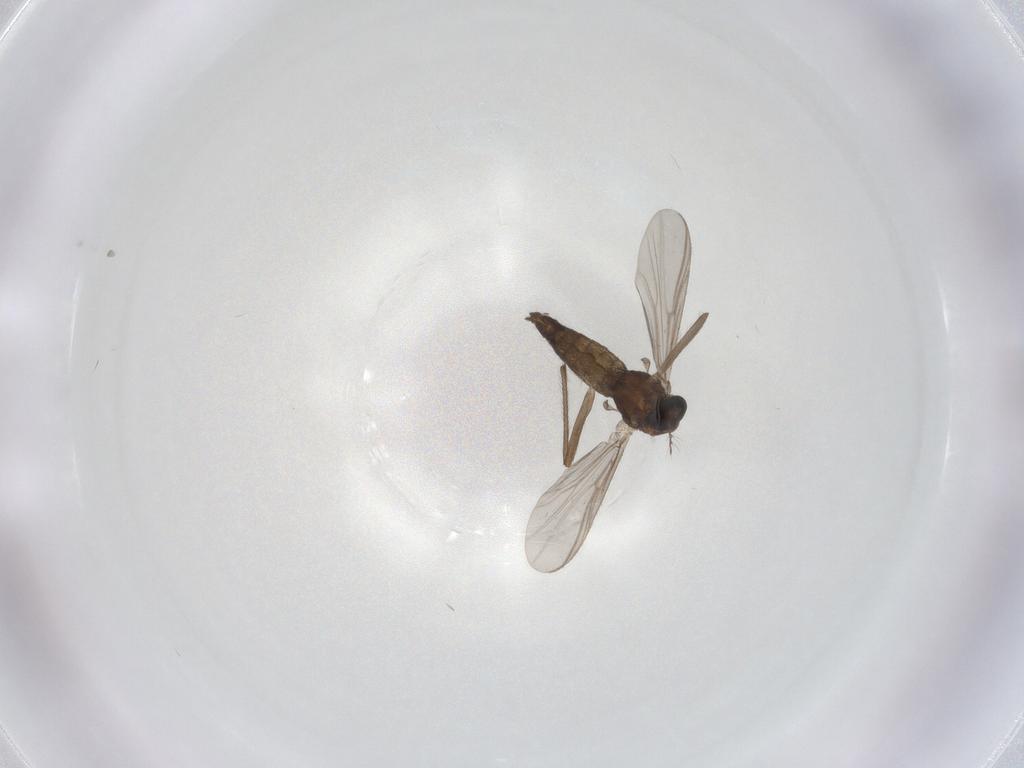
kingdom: Animalia
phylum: Arthropoda
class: Insecta
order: Diptera
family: Chironomidae
